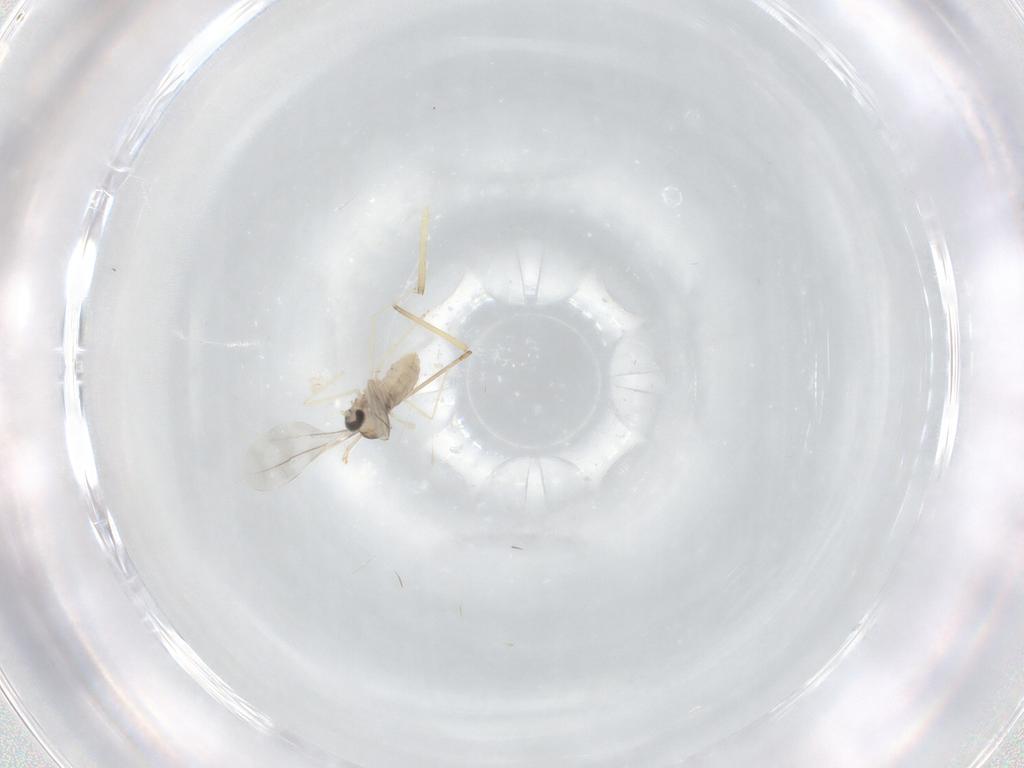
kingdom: Animalia
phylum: Arthropoda
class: Insecta
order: Diptera
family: Cecidomyiidae
